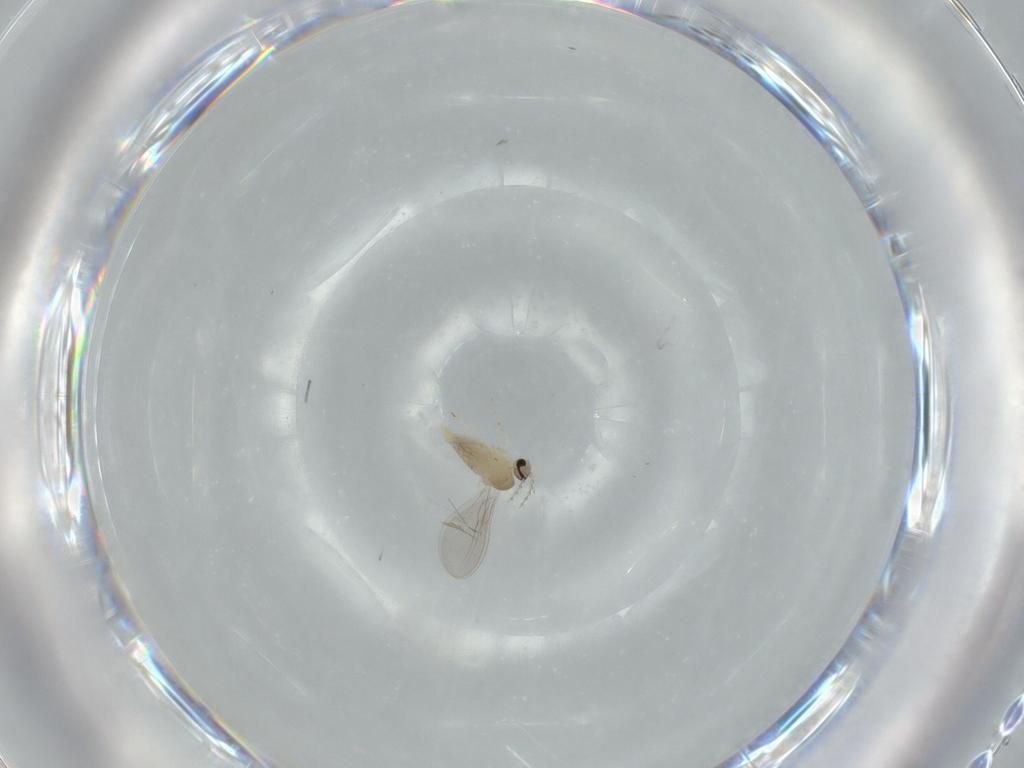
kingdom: Animalia
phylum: Arthropoda
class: Insecta
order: Diptera
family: Cecidomyiidae
